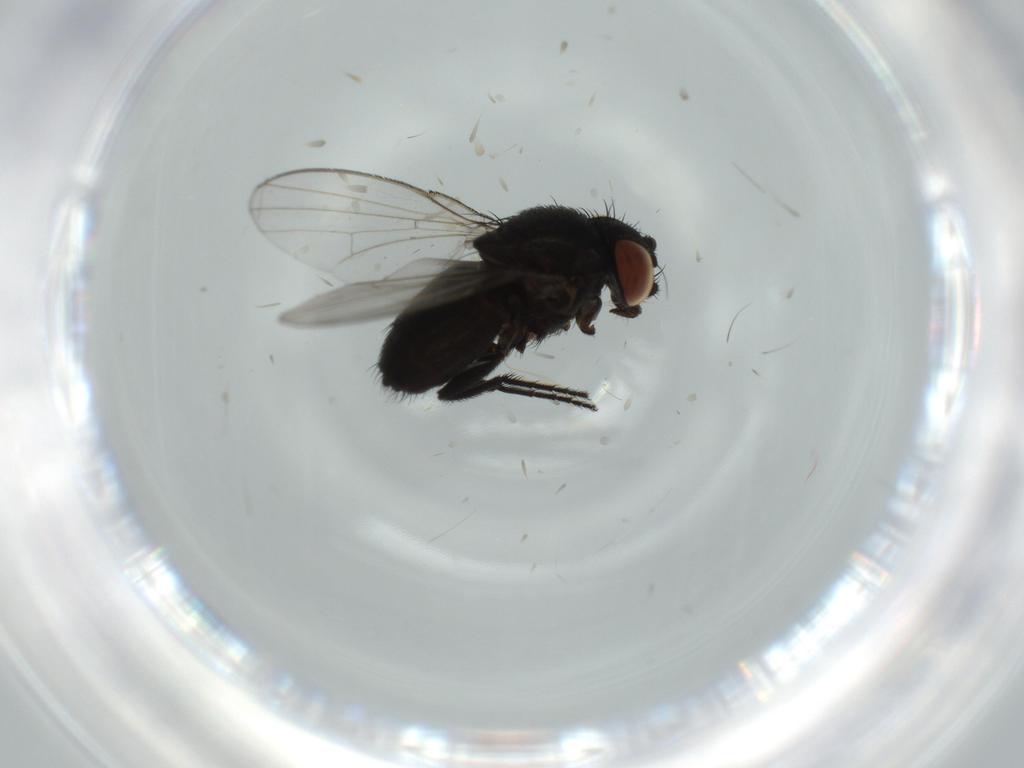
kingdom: Animalia
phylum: Arthropoda
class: Insecta
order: Diptera
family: Milichiidae
